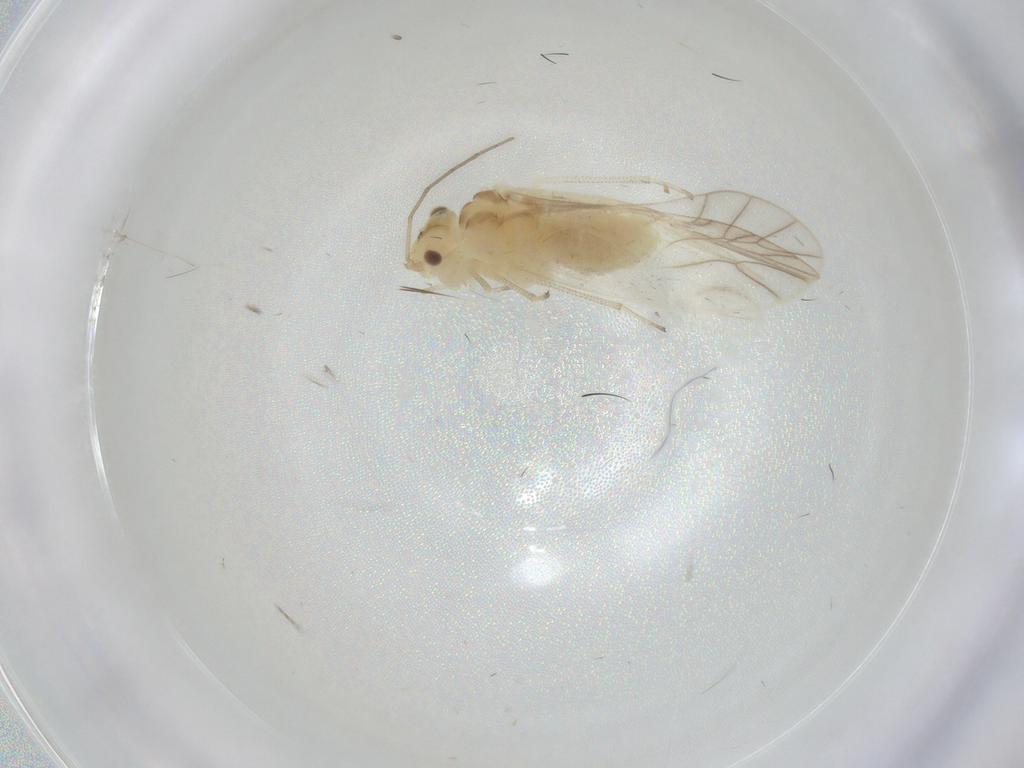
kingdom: Animalia
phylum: Arthropoda
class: Insecta
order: Psocodea
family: Caeciliusidae
